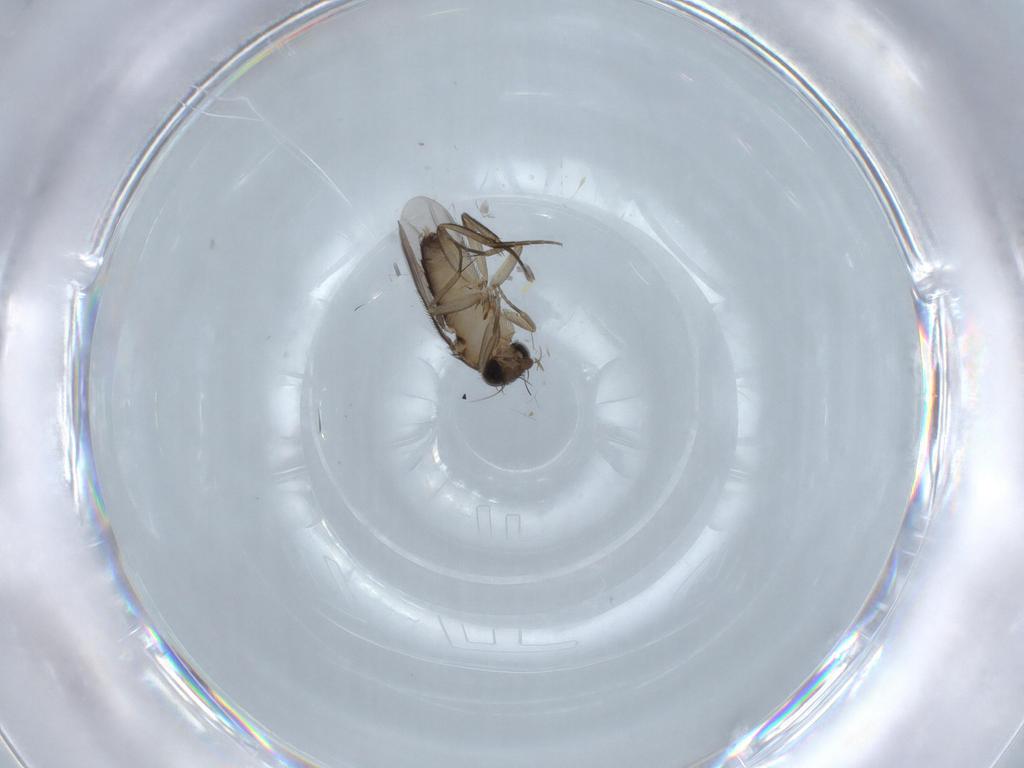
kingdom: Animalia
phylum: Arthropoda
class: Insecta
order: Diptera
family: Phoridae
